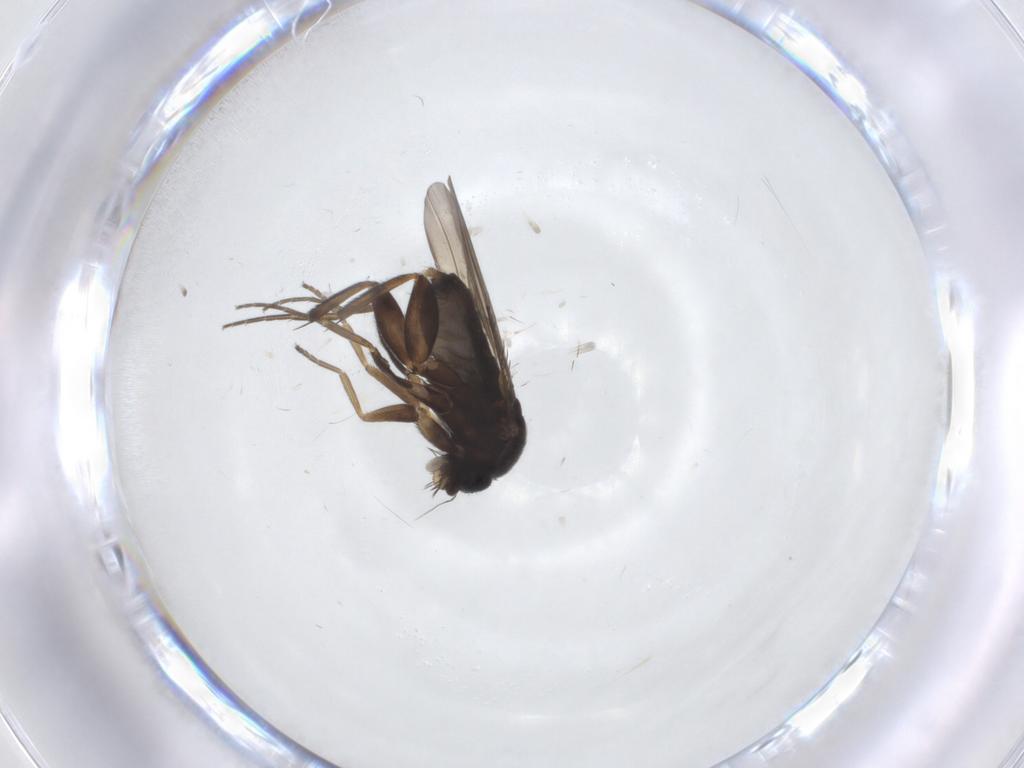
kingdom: Animalia
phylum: Arthropoda
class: Insecta
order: Diptera
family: Phoridae
